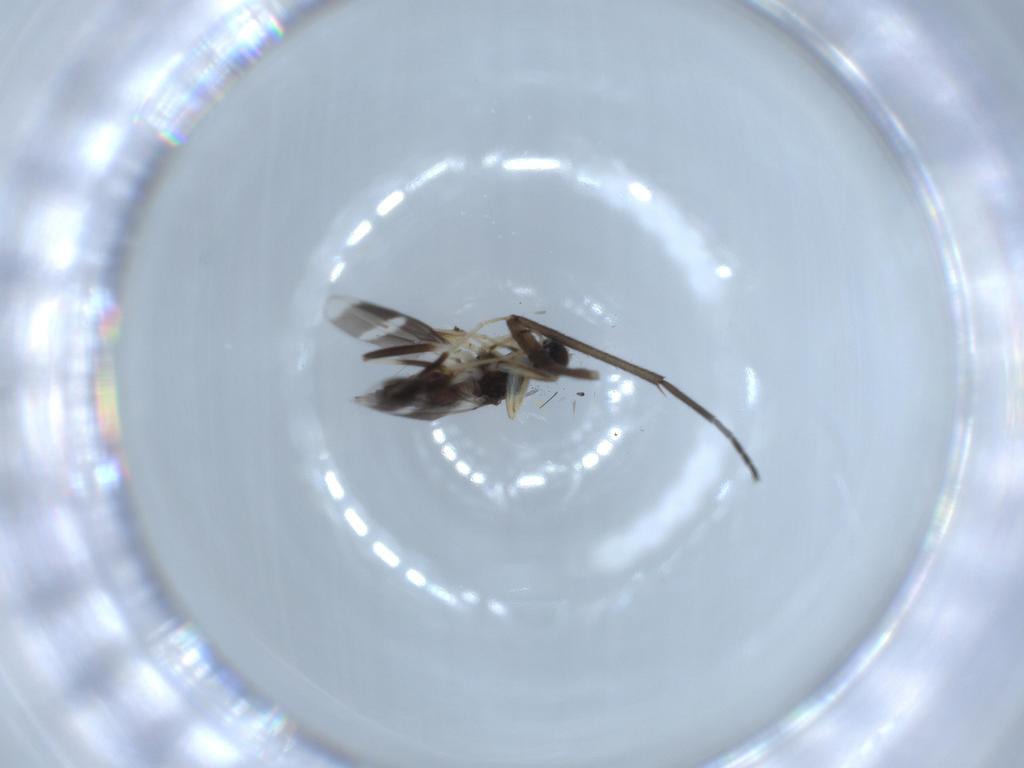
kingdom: Animalia
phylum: Arthropoda
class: Insecta
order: Diptera
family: Hybotidae
